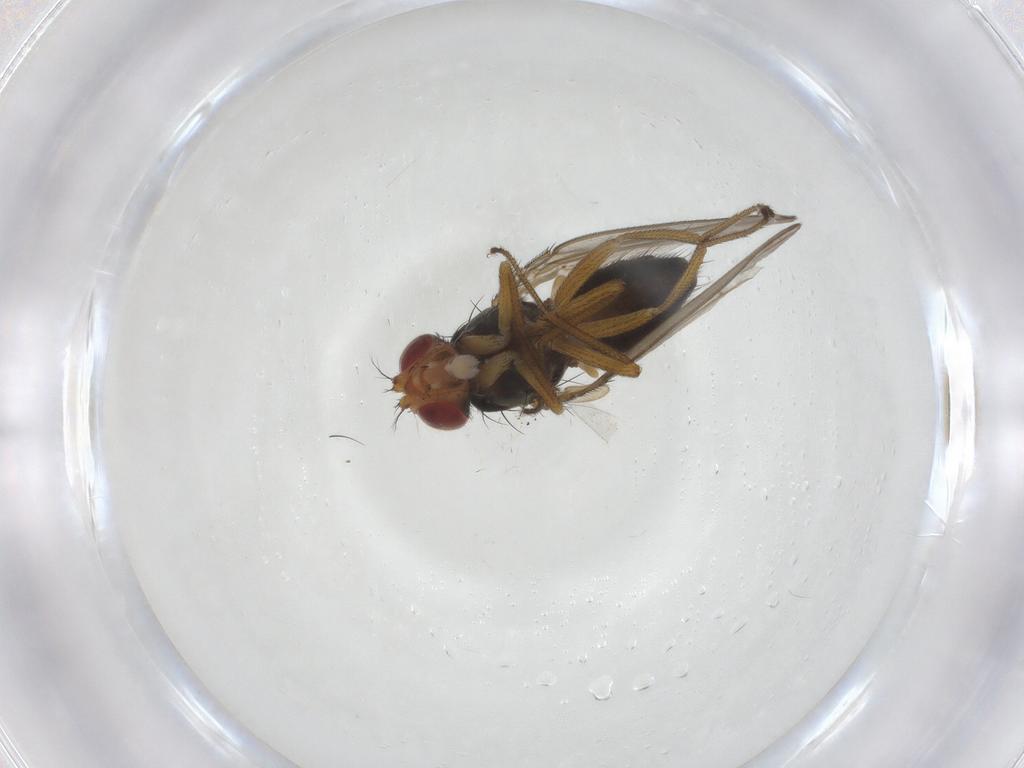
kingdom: Animalia
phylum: Arthropoda
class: Insecta
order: Diptera
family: Drosophilidae
